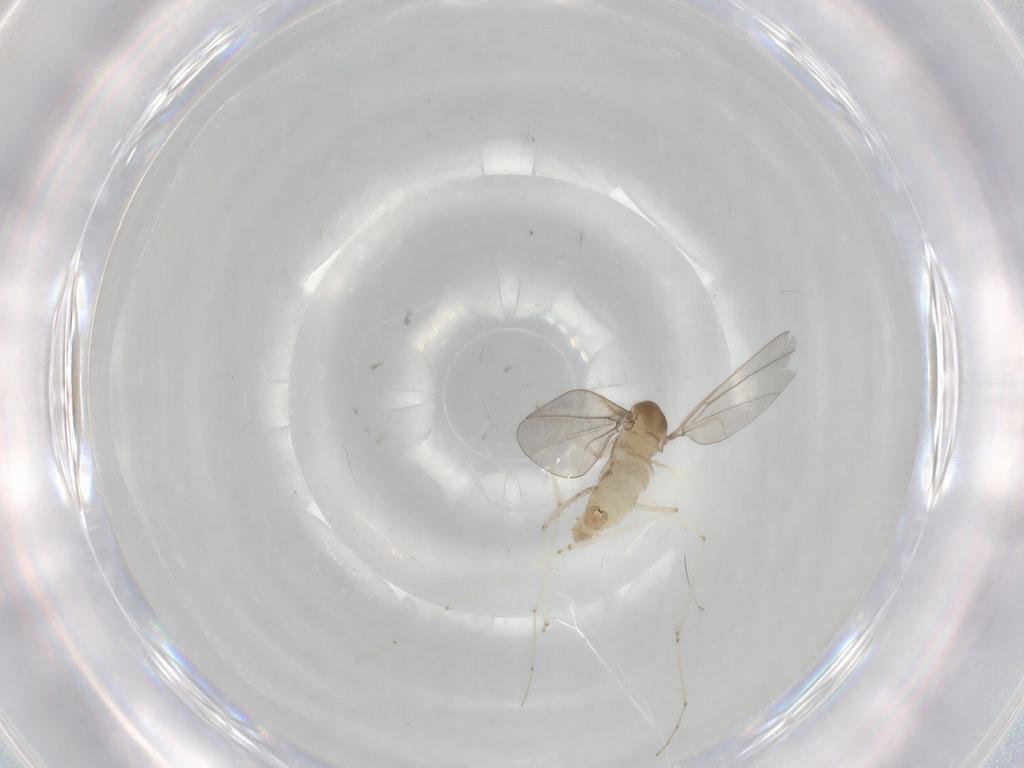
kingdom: Animalia
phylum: Arthropoda
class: Insecta
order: Diptera
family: Cecidomyiidae
